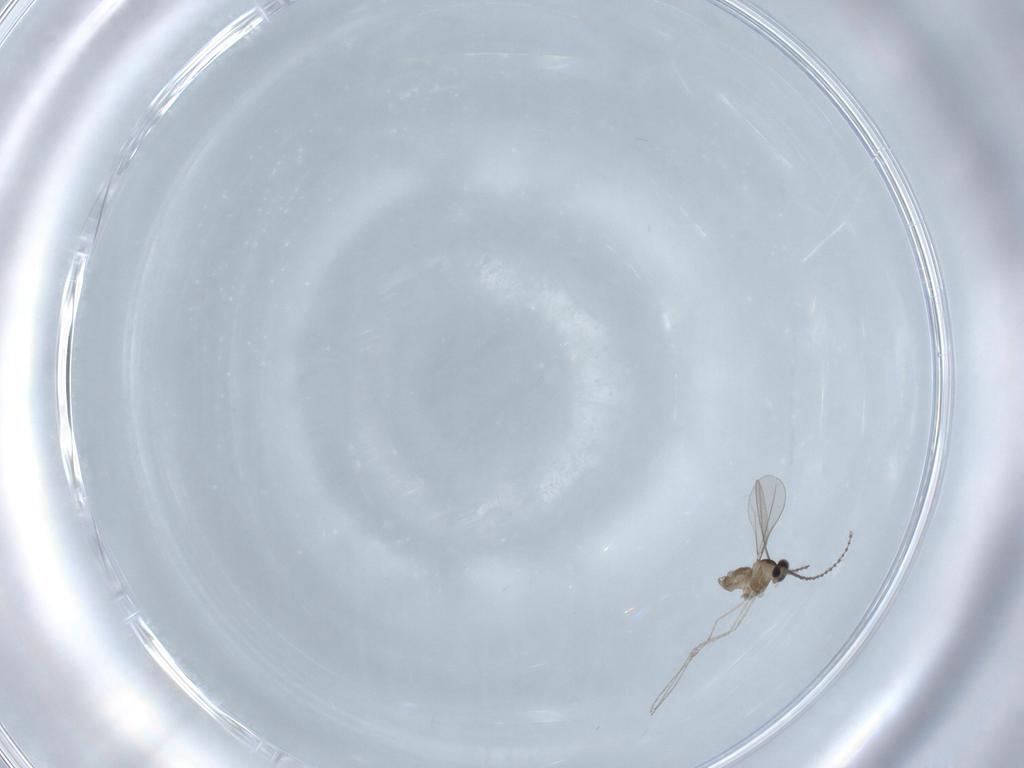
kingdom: Animalia
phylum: Arthropoda
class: Insecta
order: Diptera
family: Cecidomyiidae
